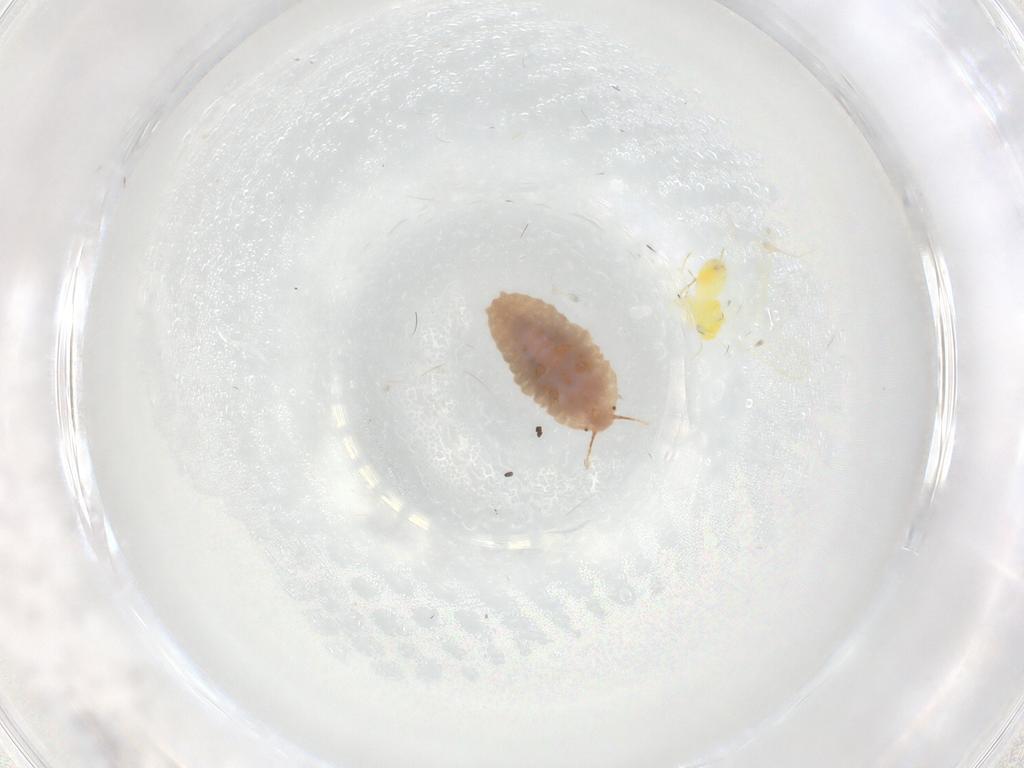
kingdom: Animalia
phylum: Arthropoda
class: Insecta
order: Hemiptera
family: Aleyrodidae
